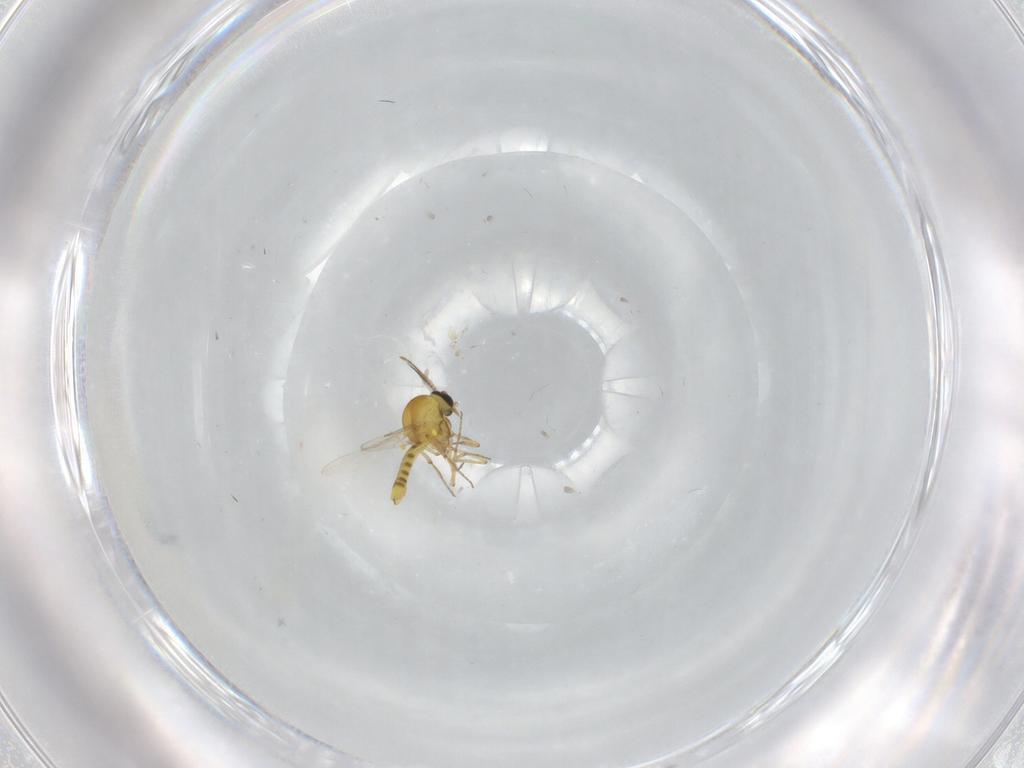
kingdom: Animalia
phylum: Arthropoda
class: Insecta
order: Diptera
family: Ceratopogonidae
